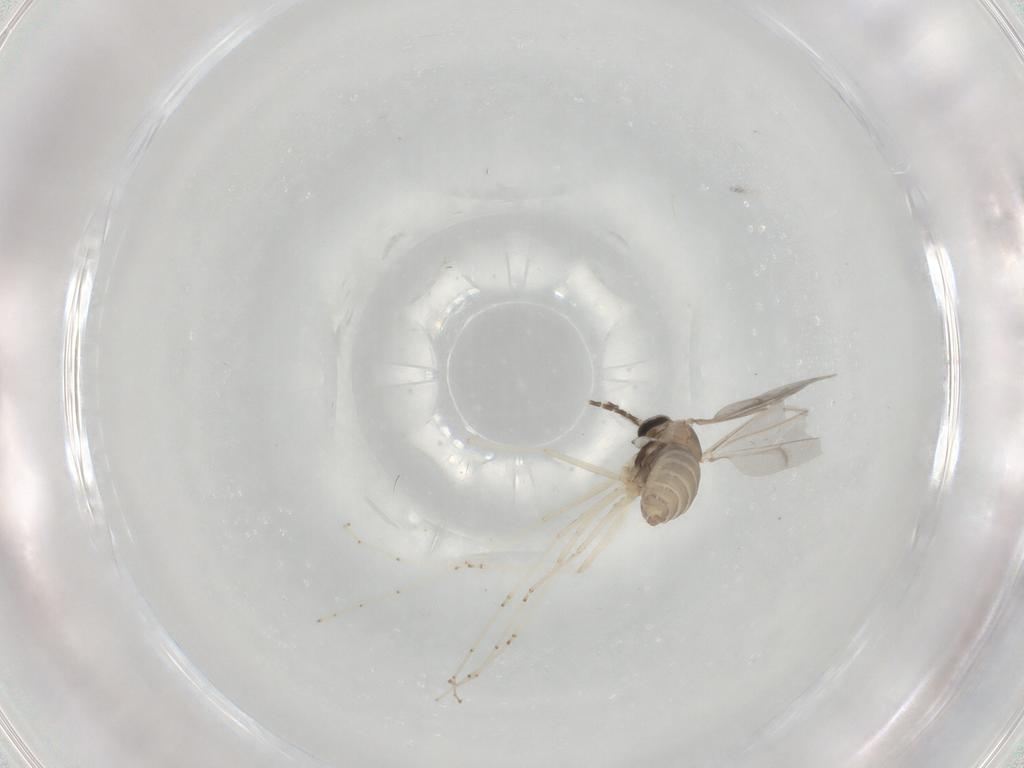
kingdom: Animalia
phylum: Arthropoda
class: Insecta
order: Diptera
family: Cecidomyiidae
